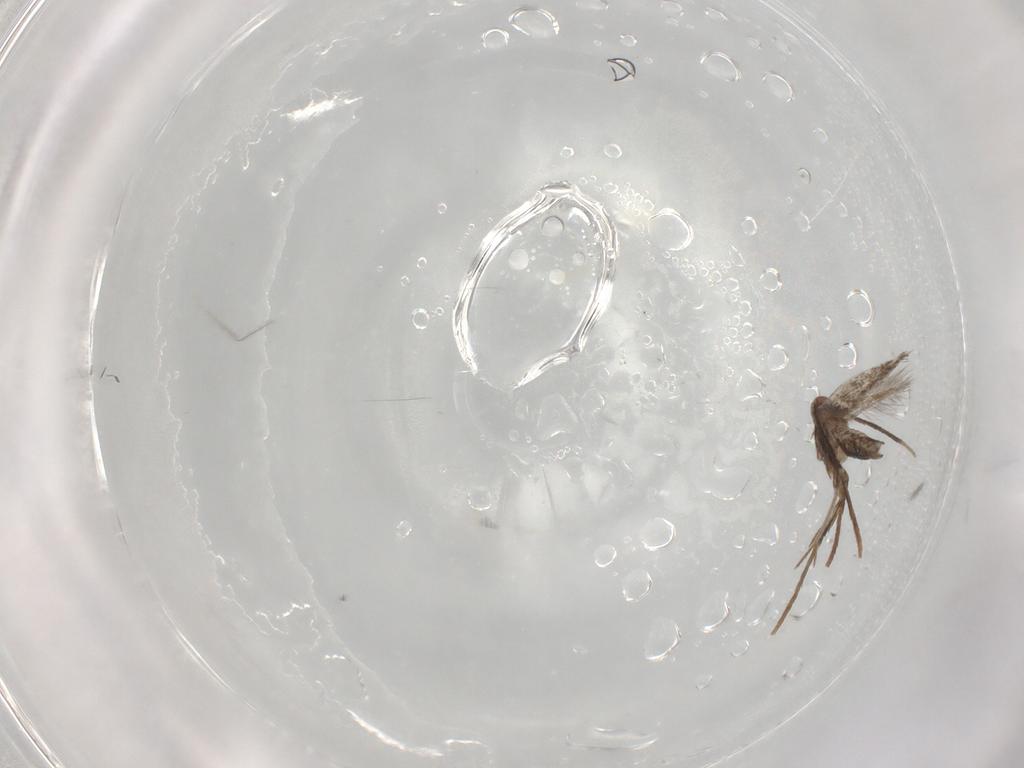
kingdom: Animalia
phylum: Arthropoda
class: Insecta
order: Lepidoptera
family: Gracillariidae
